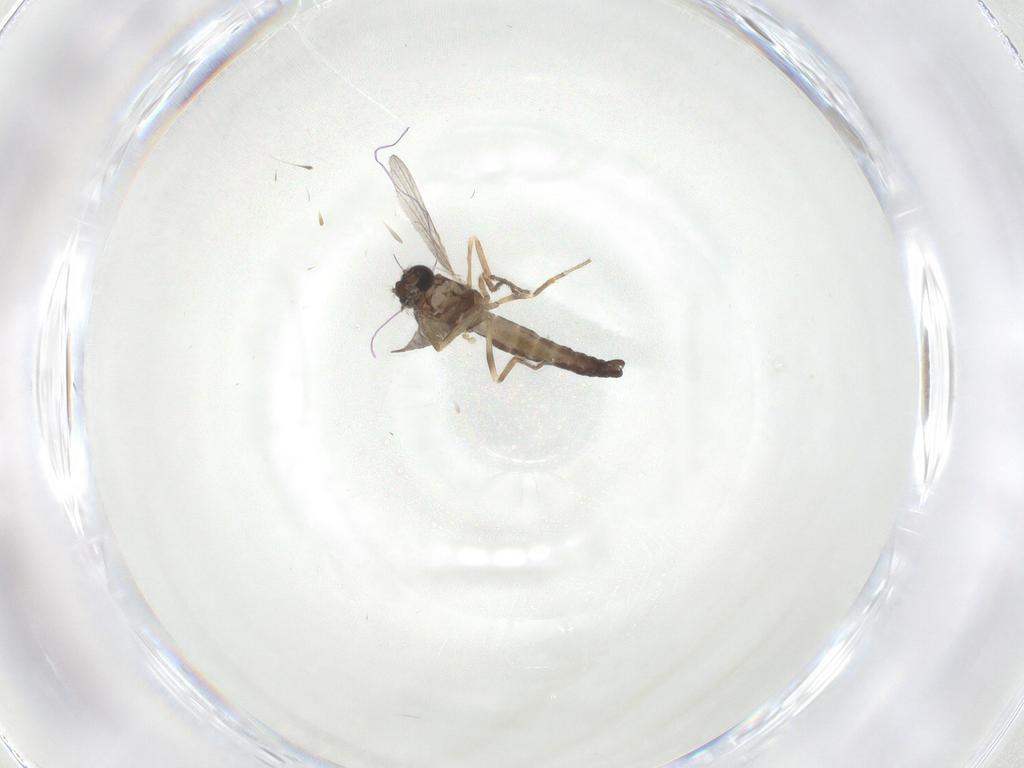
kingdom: Animalia
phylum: Arthropoda
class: Insecta
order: Diptera
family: Ceratopogonidae
